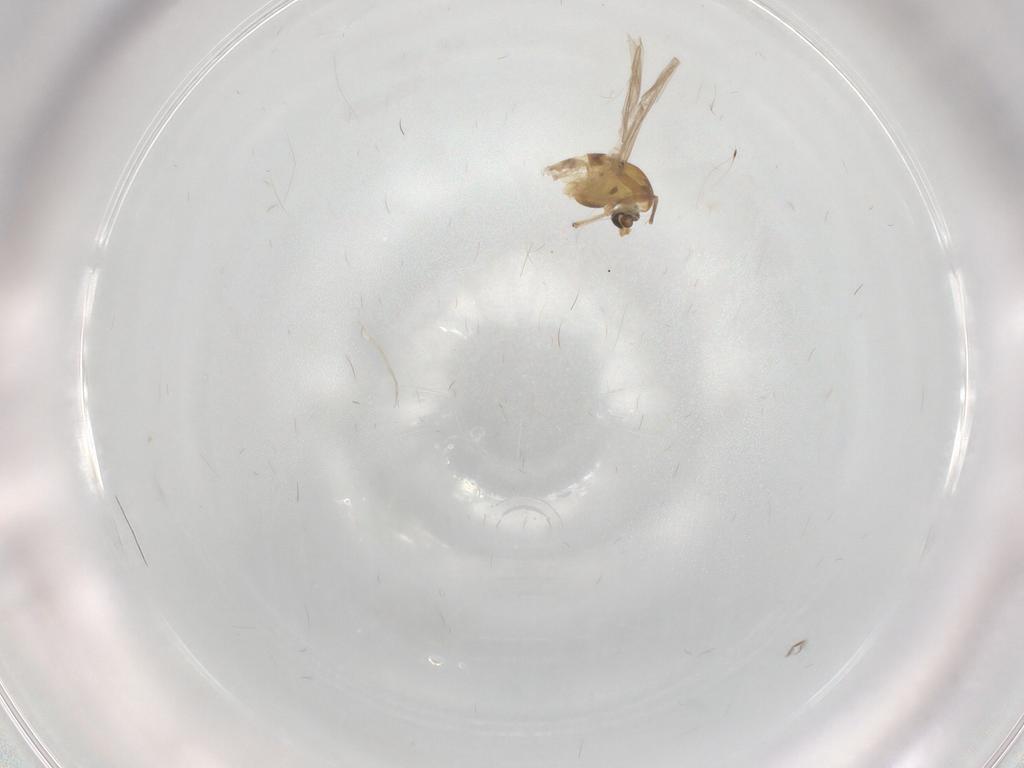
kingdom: Animalia
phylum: Arthropoda
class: Insecta
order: Diptera
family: Chironomidae
